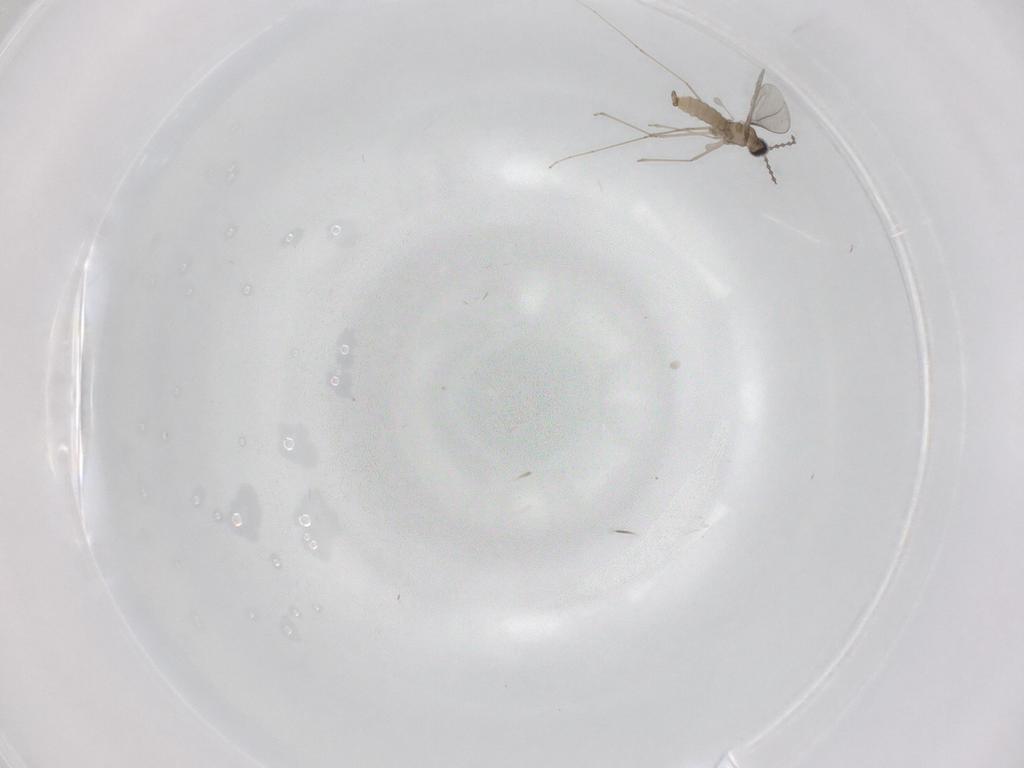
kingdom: Animalia
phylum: Arthropoda
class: Insecta
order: Diptera
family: Cecidomyiidae
